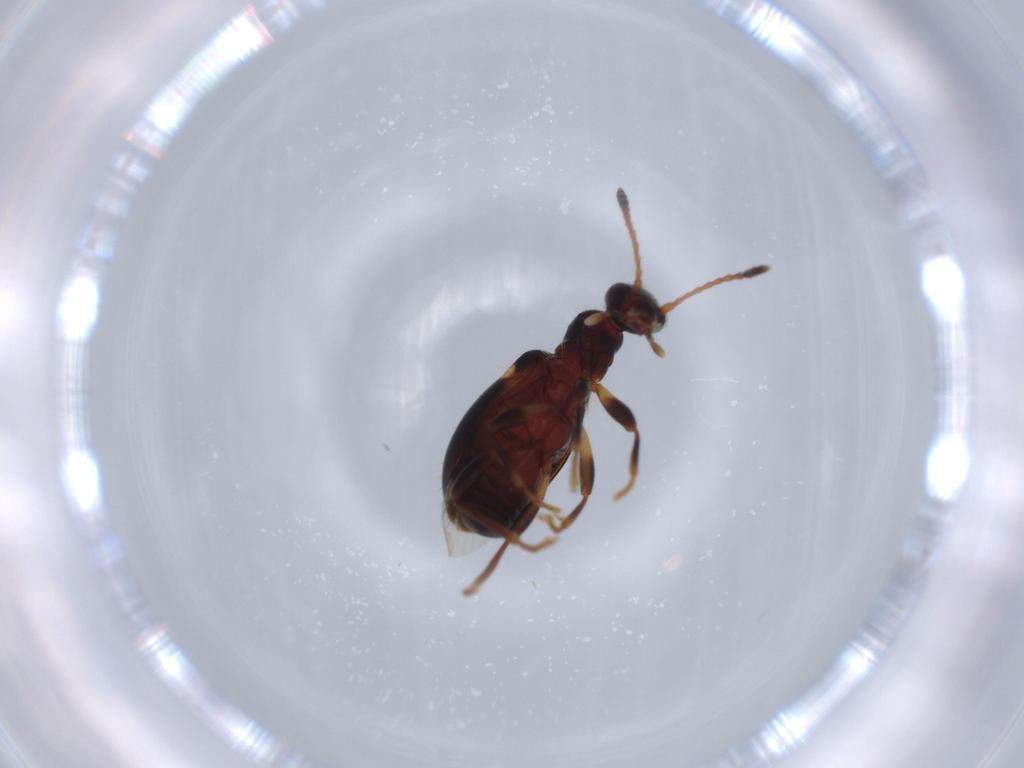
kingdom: Animalia
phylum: Arthropoda
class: Insecta
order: Coleoptera
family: Anthicidae
